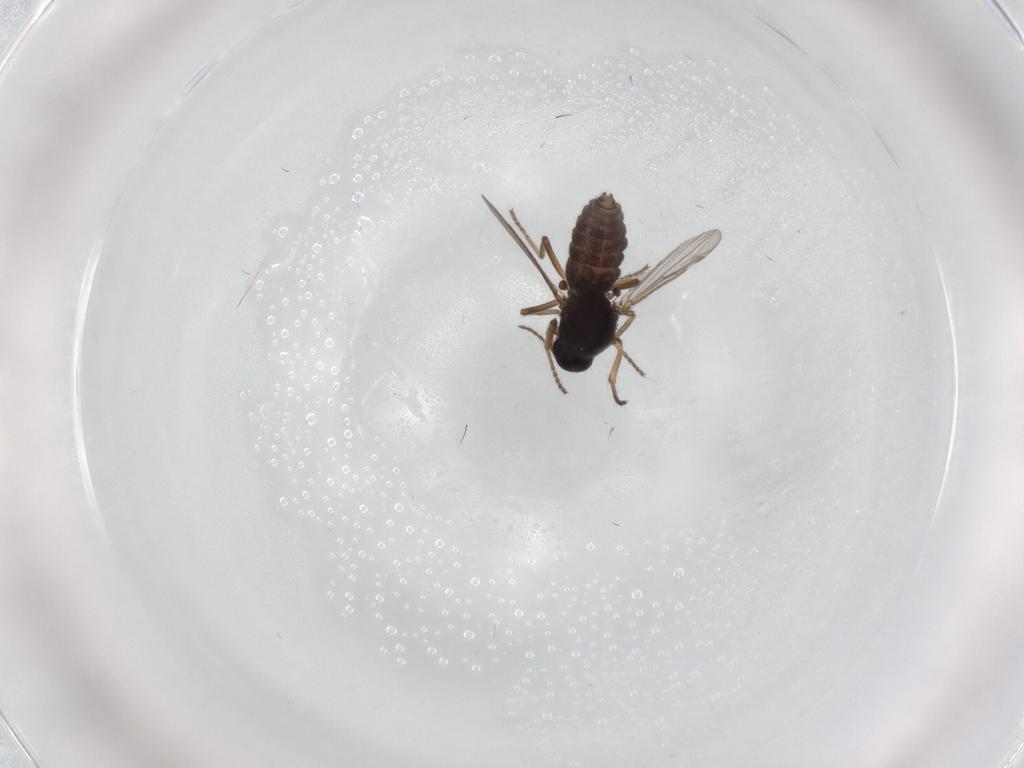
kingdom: Animalia
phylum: Arthropoda
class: Insecta
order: Diptera
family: Ceratopogonidae
